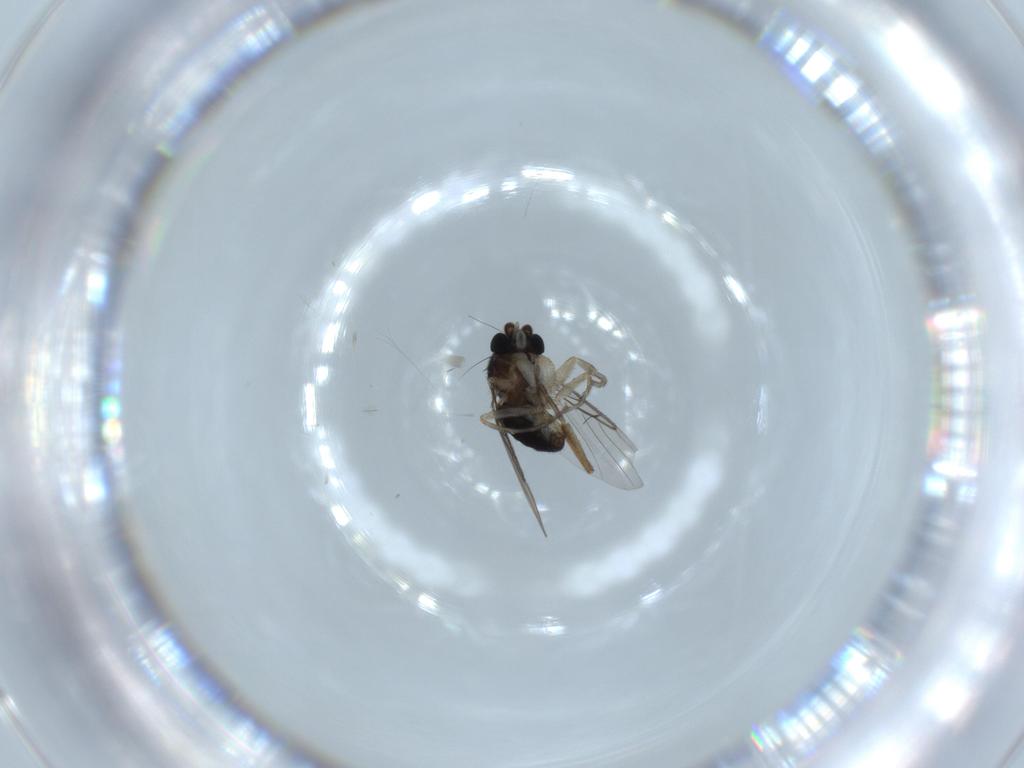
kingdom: Animalia
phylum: Arthropoda
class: Insecta
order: Diptera
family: Phoridae
